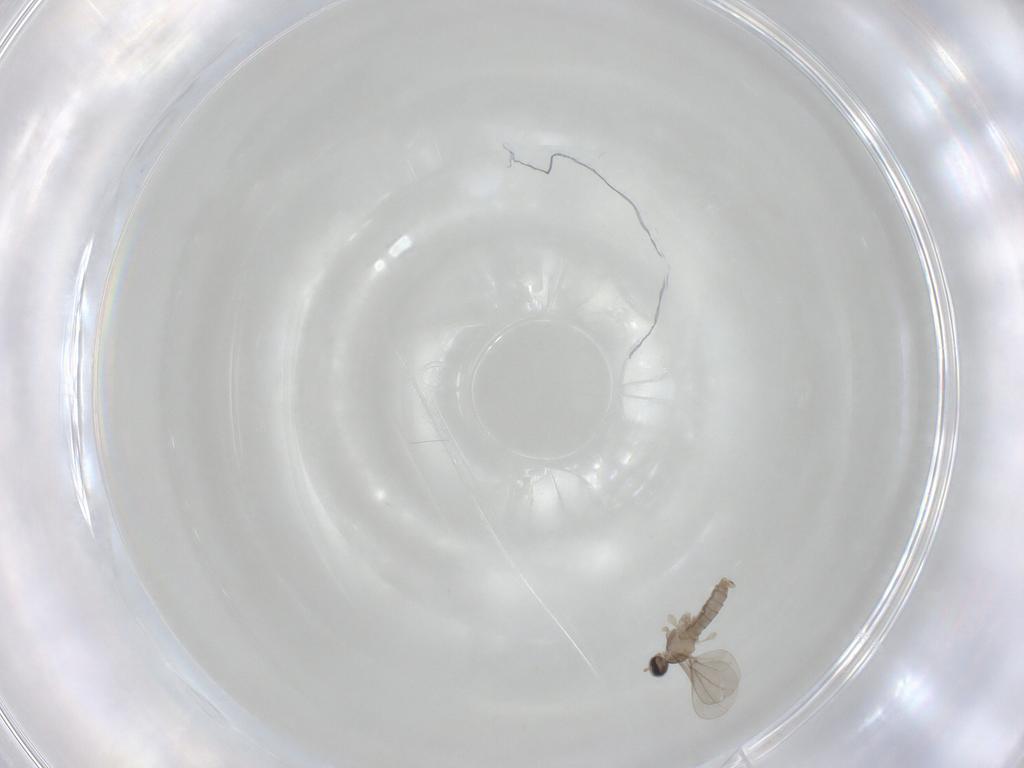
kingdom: Animalia
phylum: Arthropoda
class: Insecta
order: Diptera
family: Cecidomyiidae
